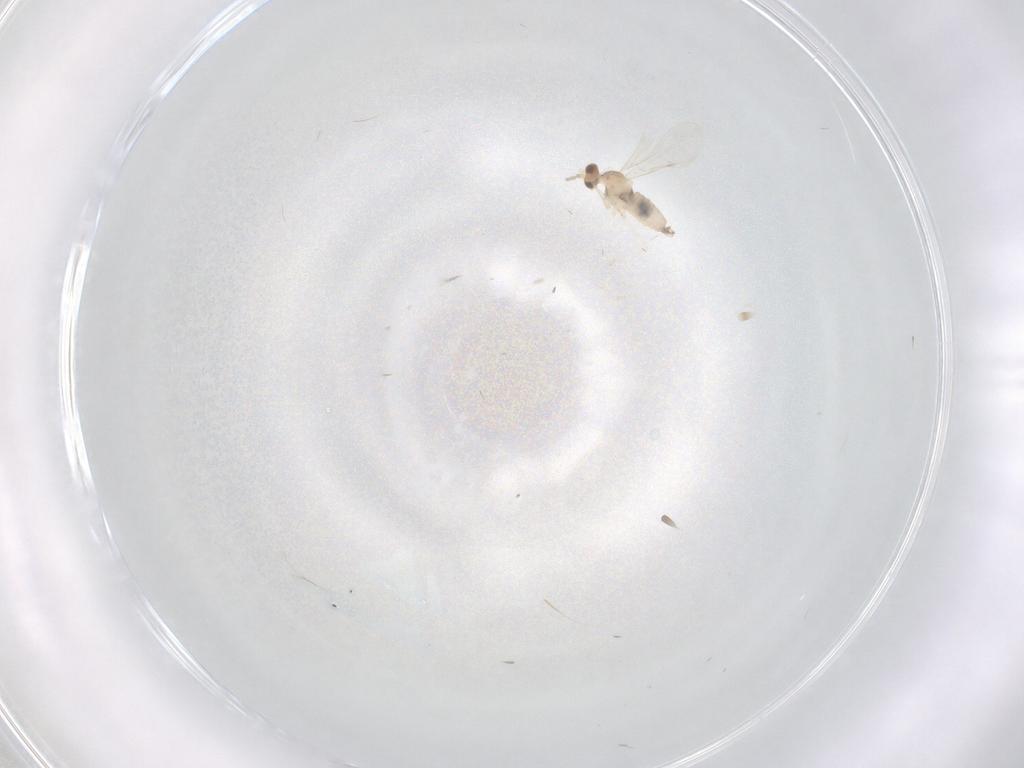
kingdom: Animalia
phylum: Arthropoda
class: Insecta
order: Diptera
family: Cecidomyiidae
